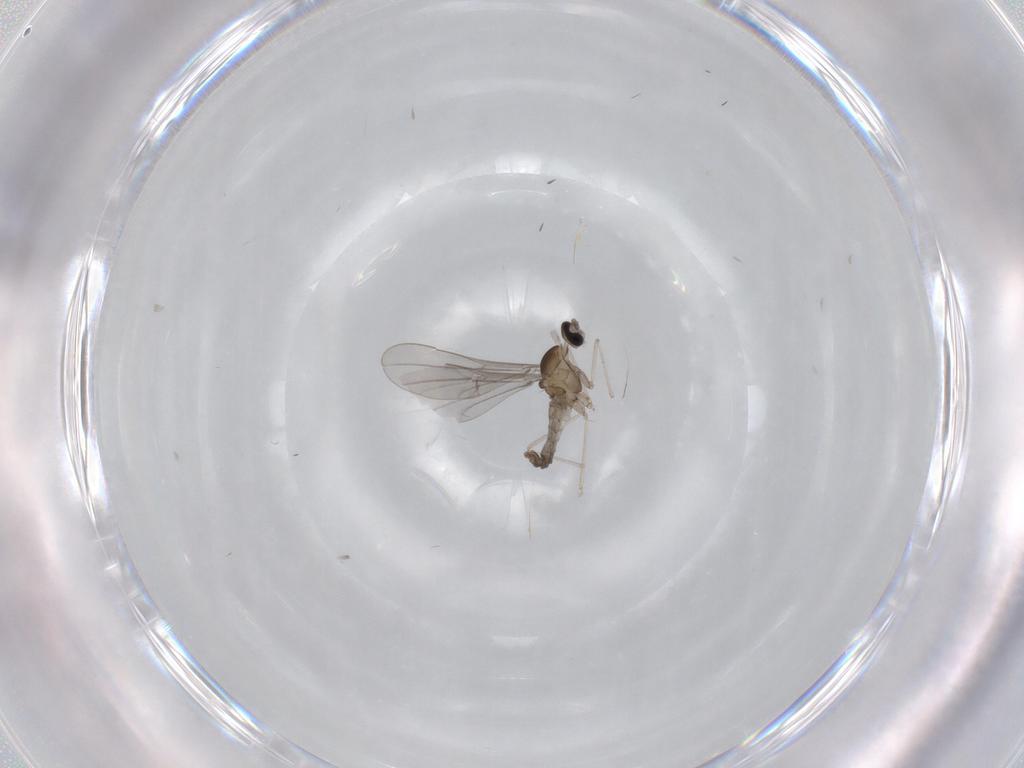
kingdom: Animalia
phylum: Arthropoda
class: Insecta
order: Diptera
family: Cecidomyiidae
